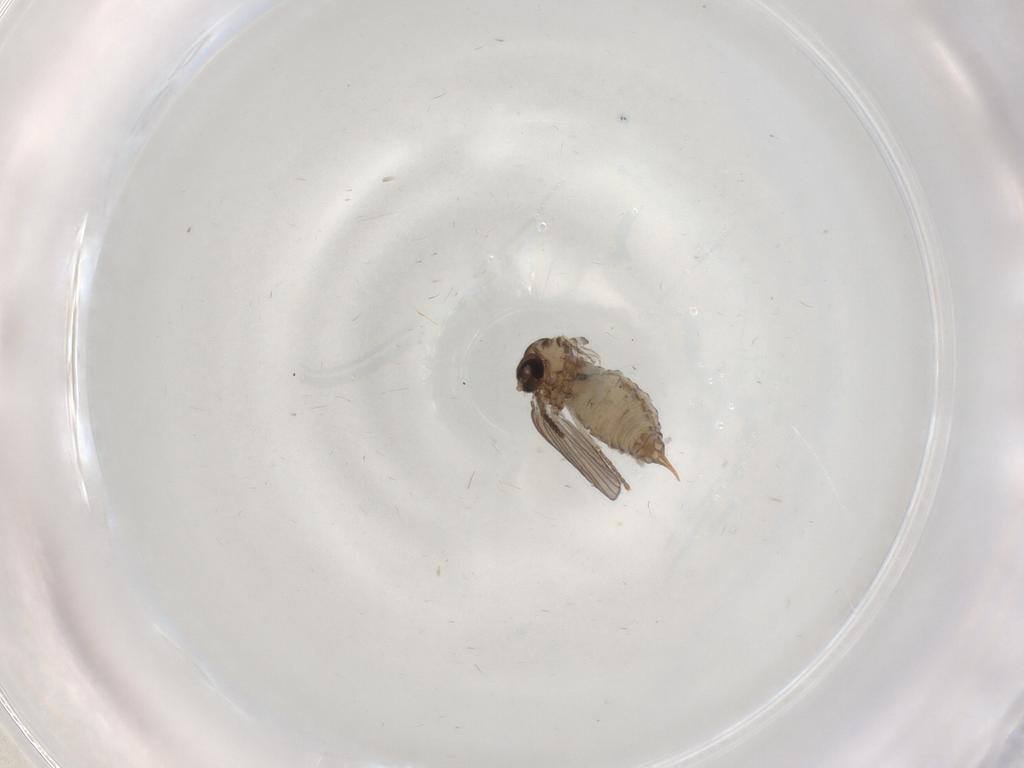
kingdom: Animalia
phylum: Arthropoda
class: Insecta
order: Diptera
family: Psychodidae
